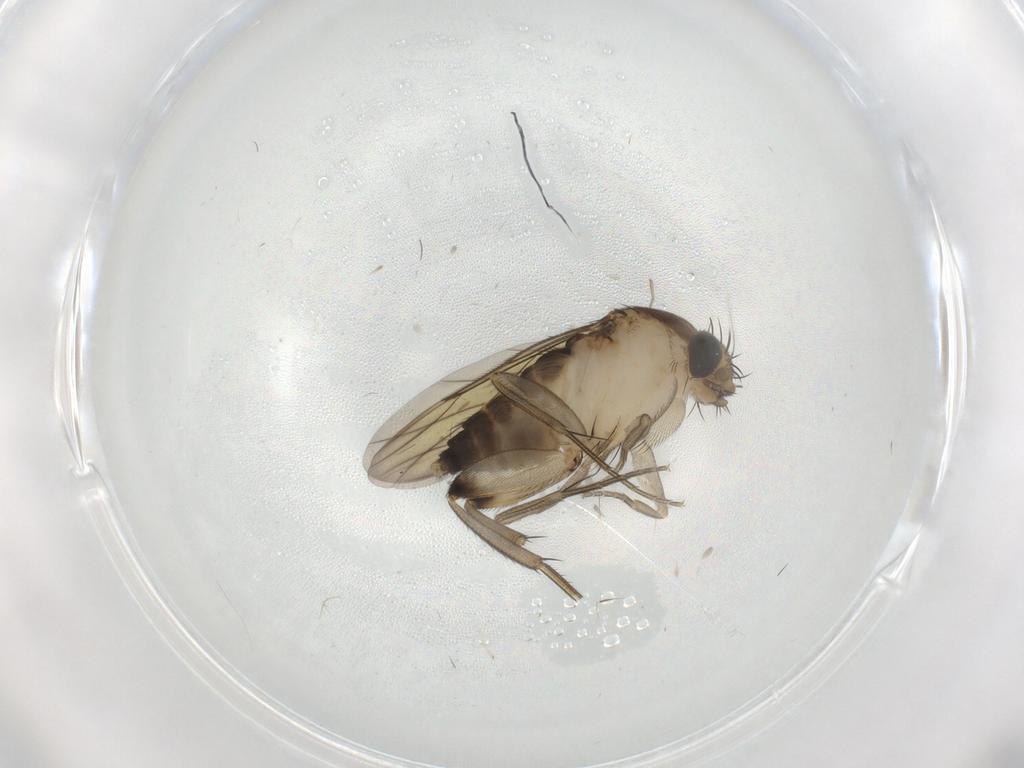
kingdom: Animalia
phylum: Arthropoda
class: Insecta
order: Diptera
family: Phoridae
